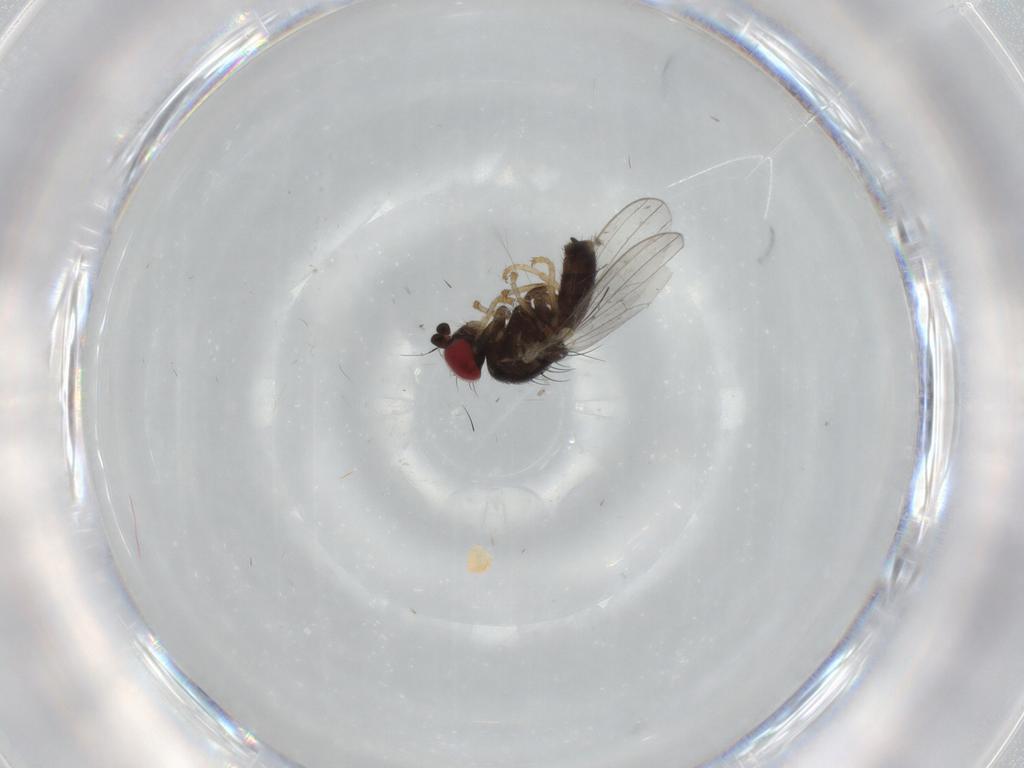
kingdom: Animalia
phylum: Arthropoda
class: Insecta
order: Diptera
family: Chamaemyiidae
